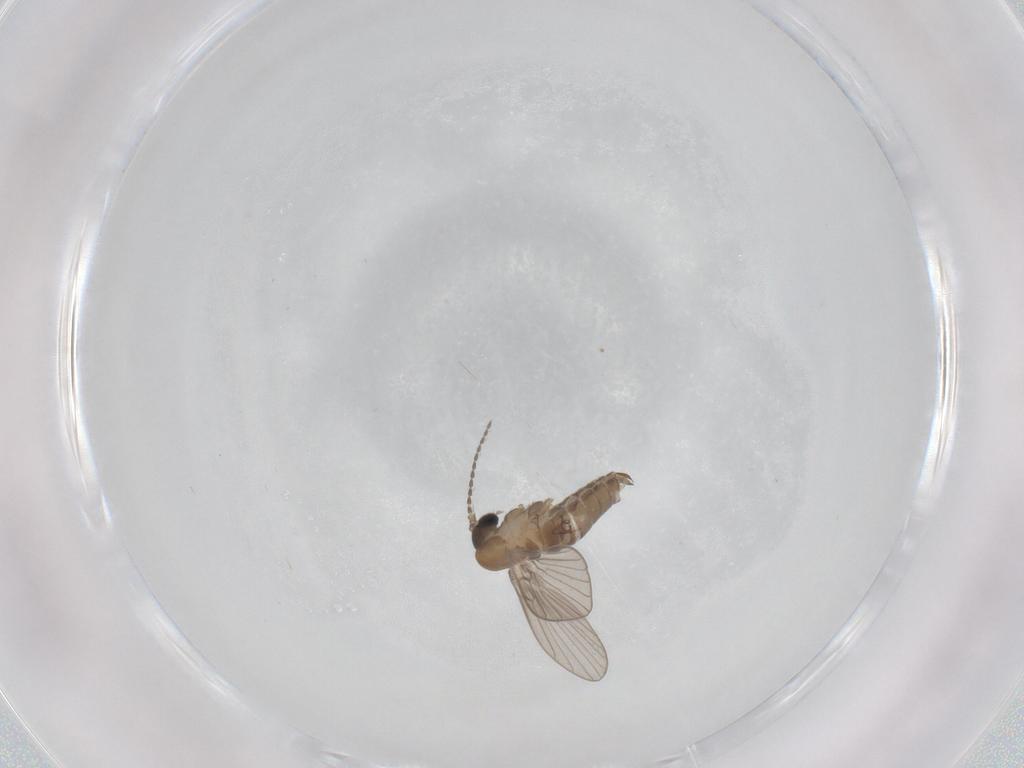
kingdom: Animalia
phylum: Arthropoda
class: Insecta
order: Diptera
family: Psychodidae
